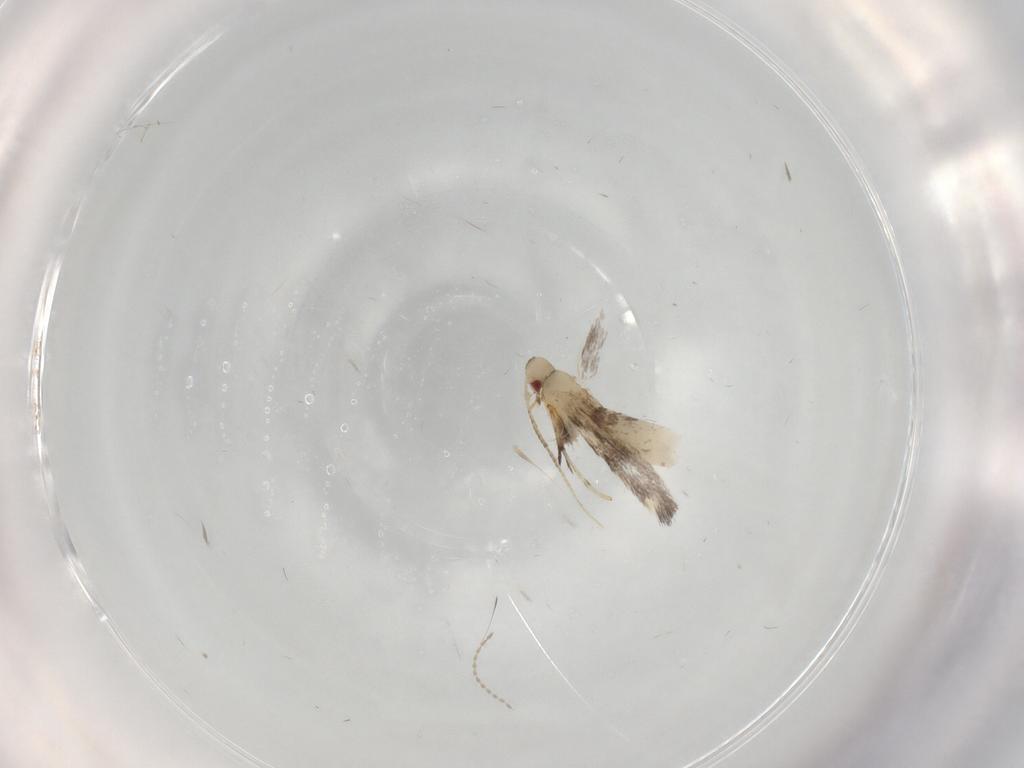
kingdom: Animalia
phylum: Arthropoda
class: Insecta
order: Lepidoptera
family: Gracillariidae
